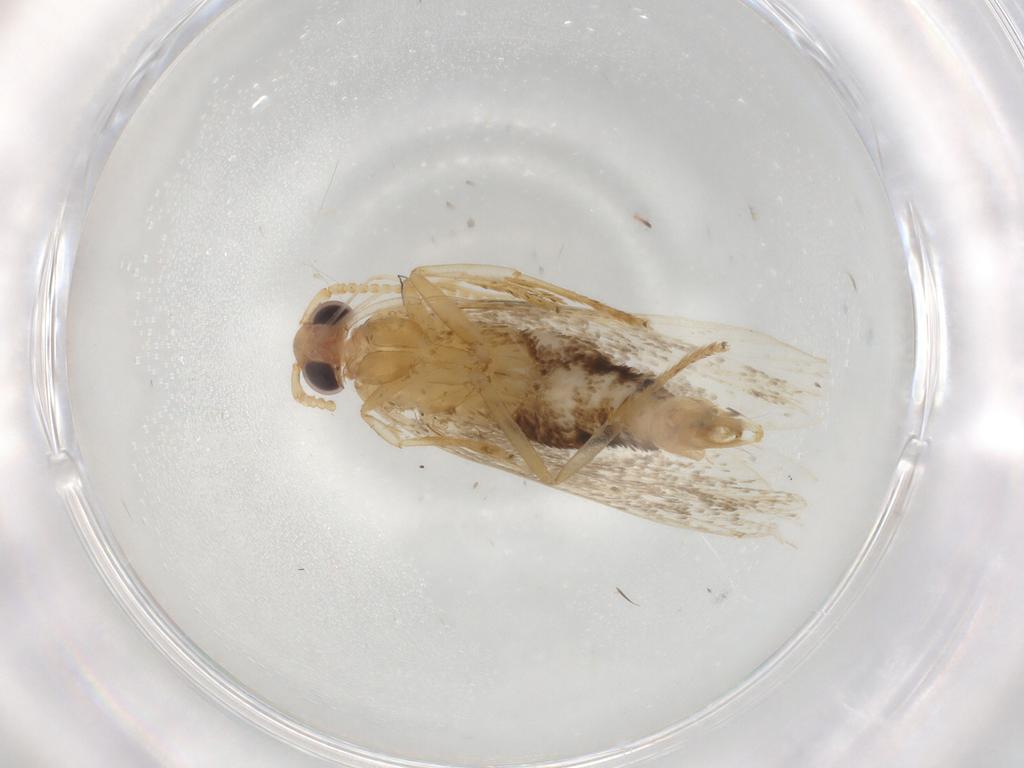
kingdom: Animalia
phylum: Arthropoda
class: Insecta
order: Lepidoptera
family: Lecithoceridae
